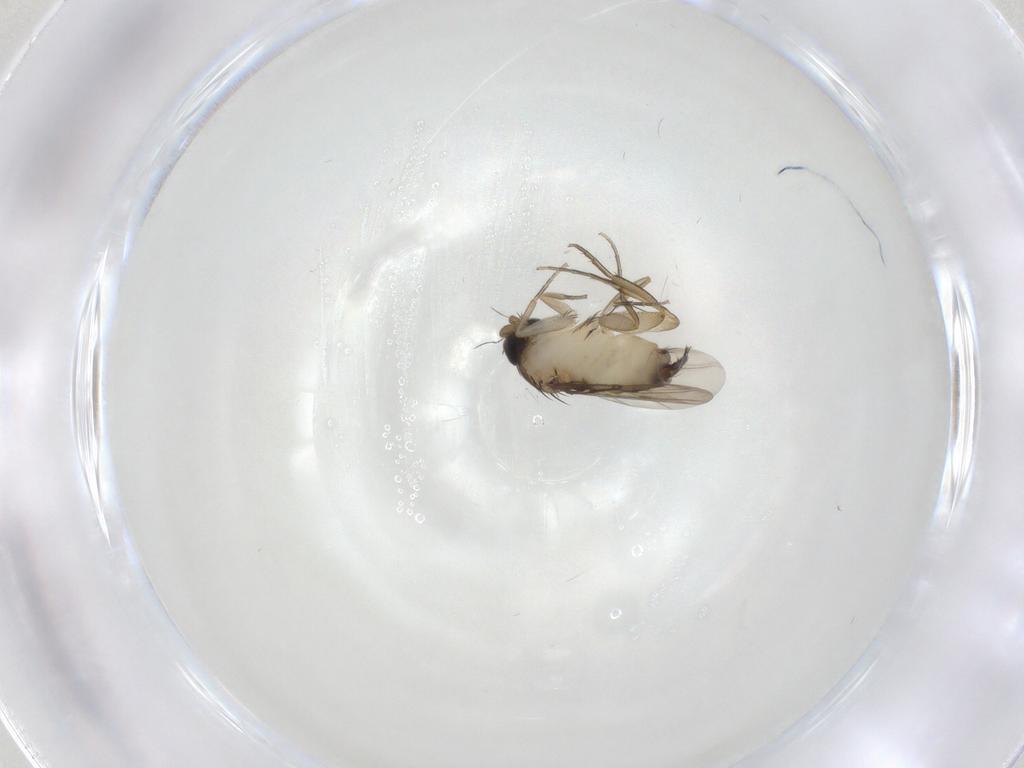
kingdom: Animalia
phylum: Arthropoda
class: Insecta
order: Diptera
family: Phoridae
